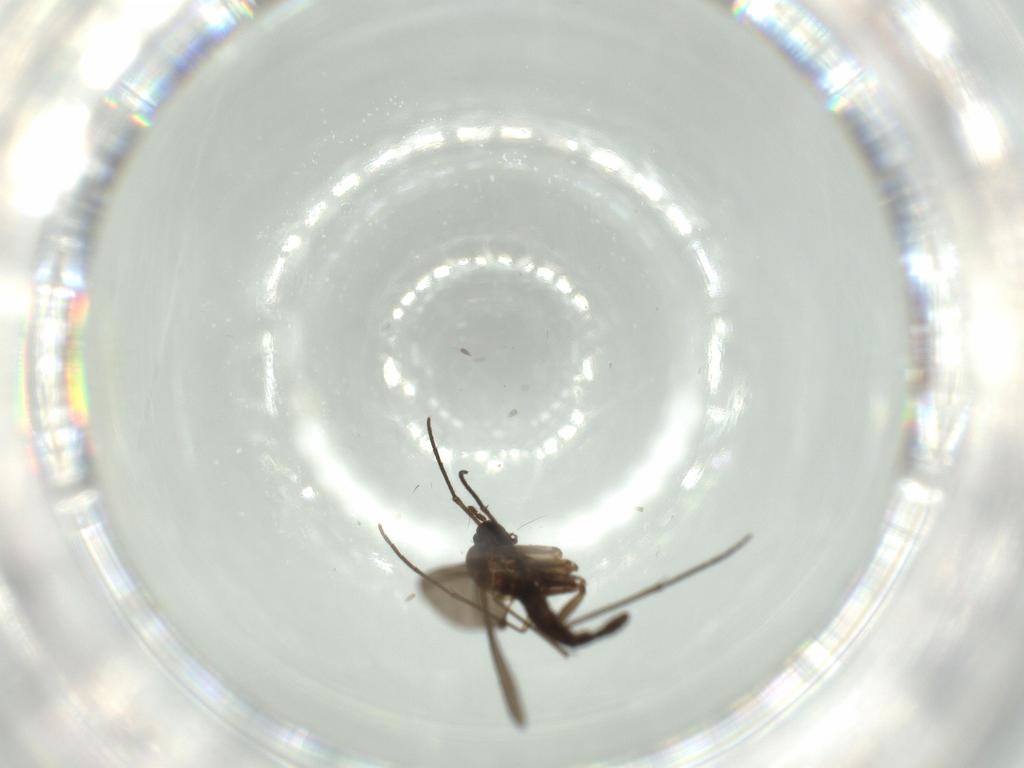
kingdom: Animalia
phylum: Arthropoda
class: Insecta
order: Diptera
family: Sciaridae
